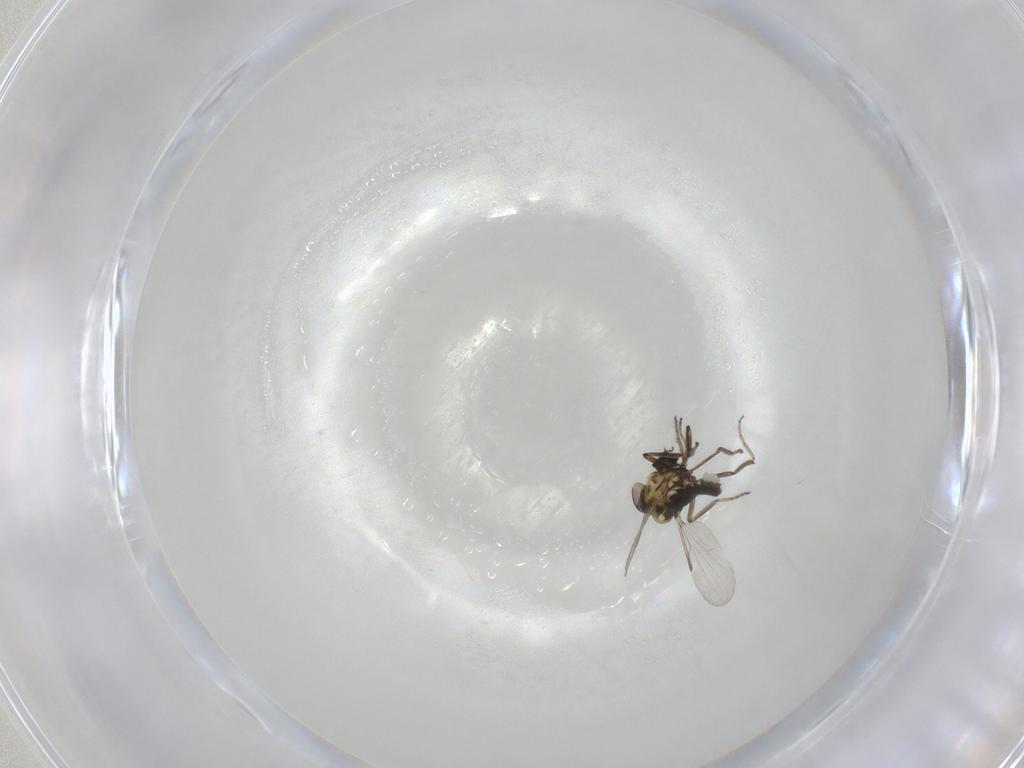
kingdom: Animalia
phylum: Arthropoda
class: Insecta
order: Diptera
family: Ceratopogonidae
